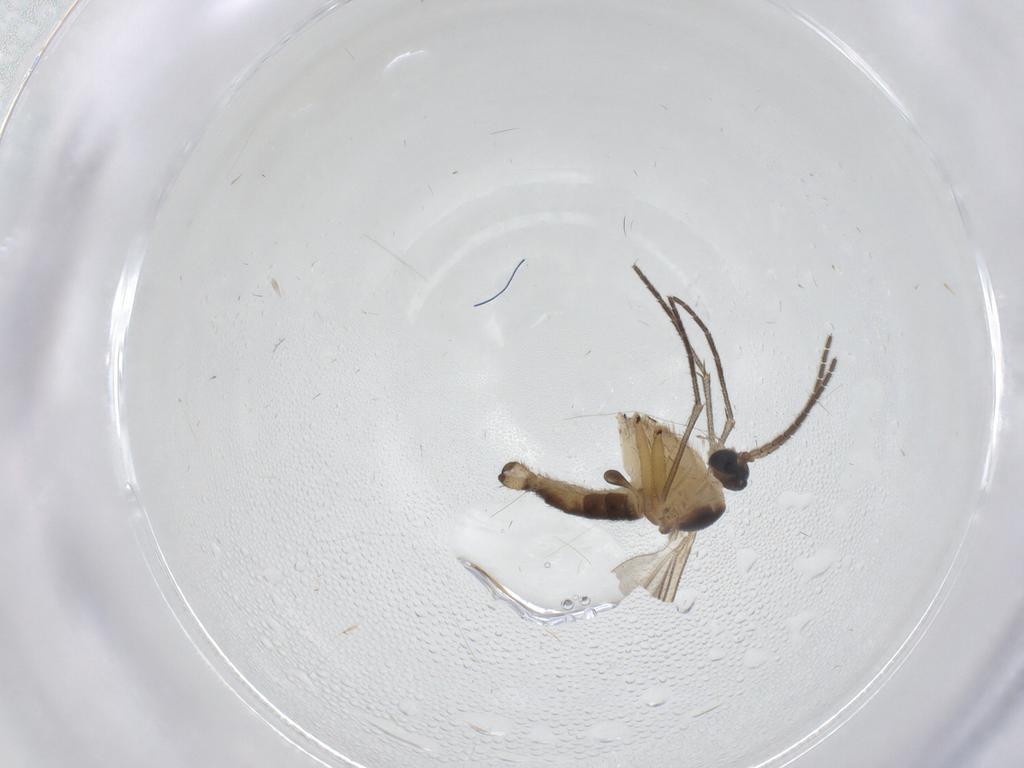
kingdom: Animalia
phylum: Arthropoda
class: Insecta
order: Diptera
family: Sciaridae
